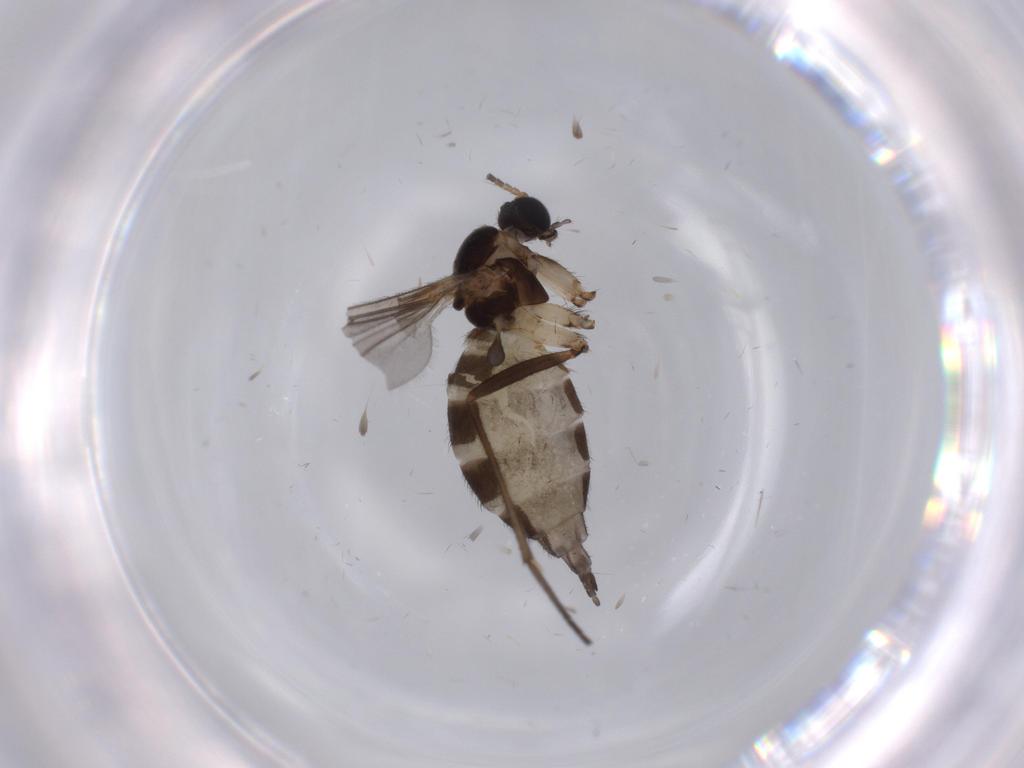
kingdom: Animalia
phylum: Arthropoda
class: Insecta
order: Diptera
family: Sciaridae
